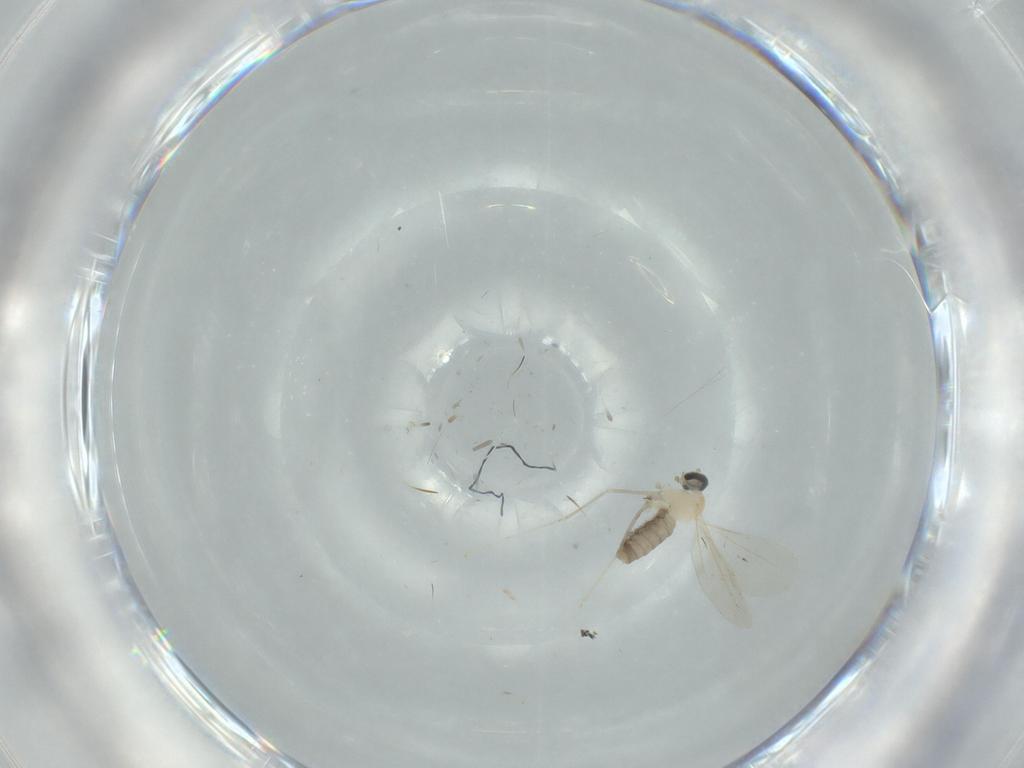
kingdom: Animalia
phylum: Arthropoda
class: Insecta
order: Diptera
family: Cecidomyiidae
